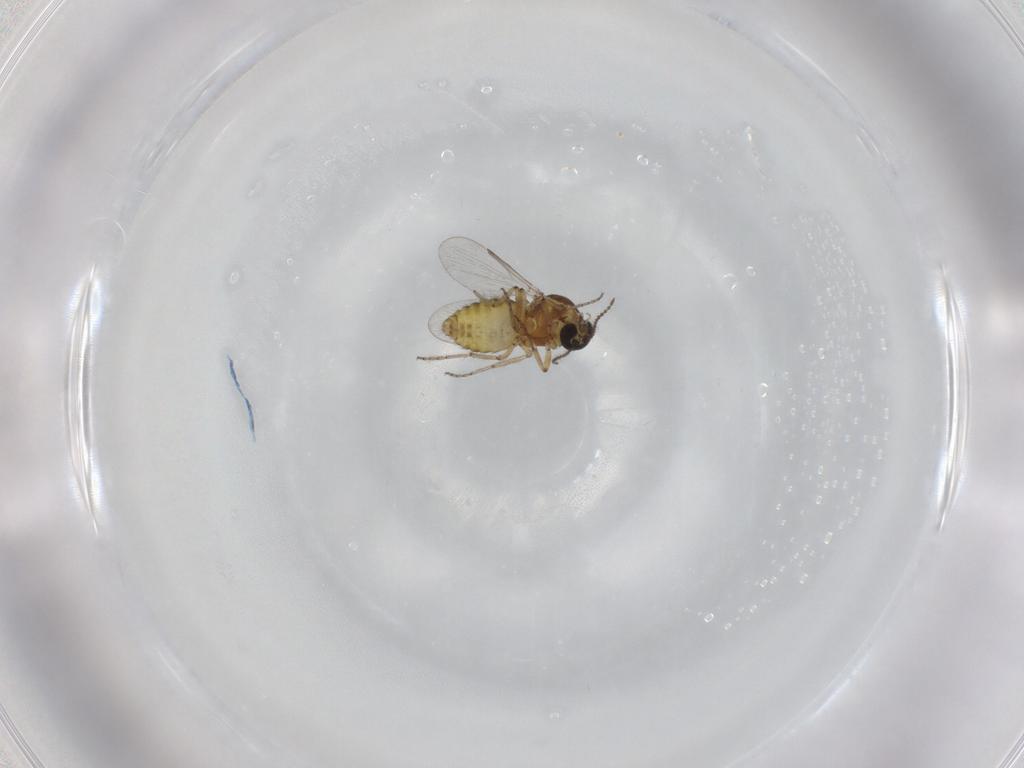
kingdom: Animalia
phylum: Arthropoda
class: Insecta
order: Diptera
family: Ceratopogonidae
